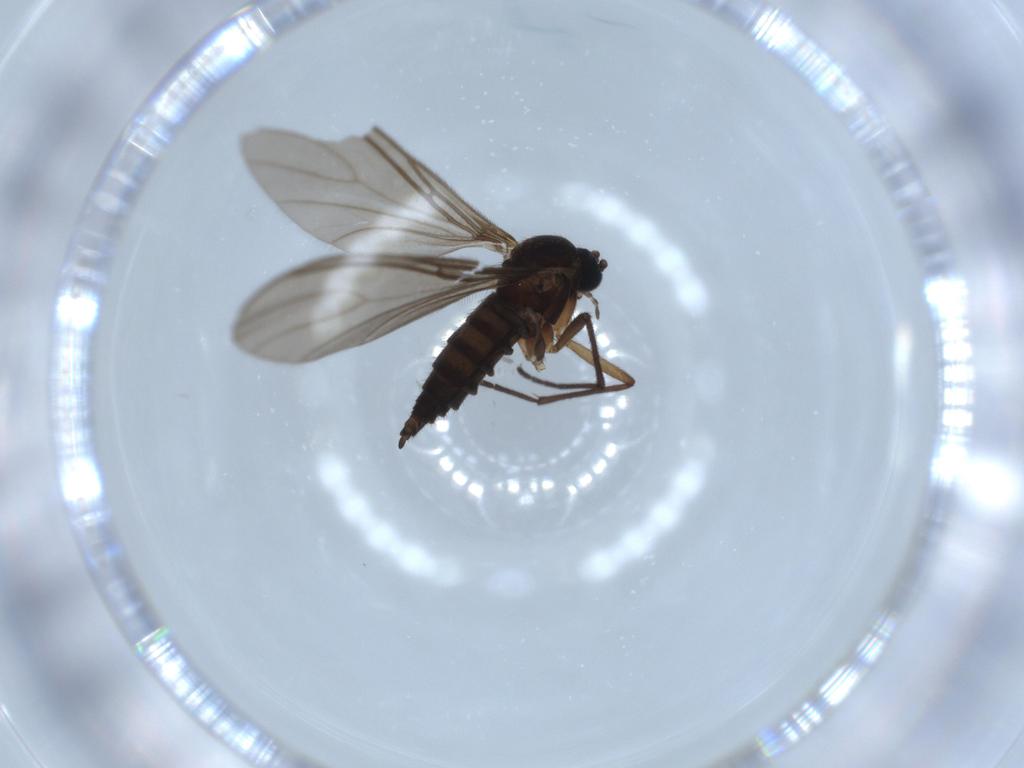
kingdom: Animalia
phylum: Arthropoda
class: Insecta
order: Diptera
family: Sciaridae
